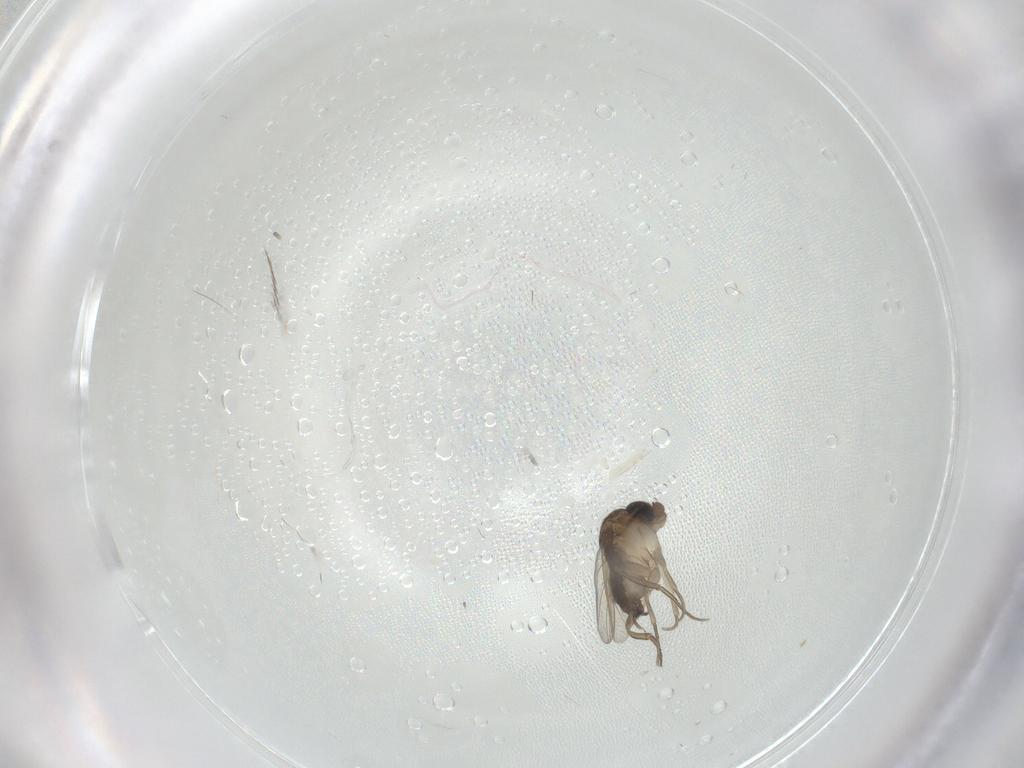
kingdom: Animalia
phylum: Arthropoda
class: Insecta
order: Diptera
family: Phoridae
